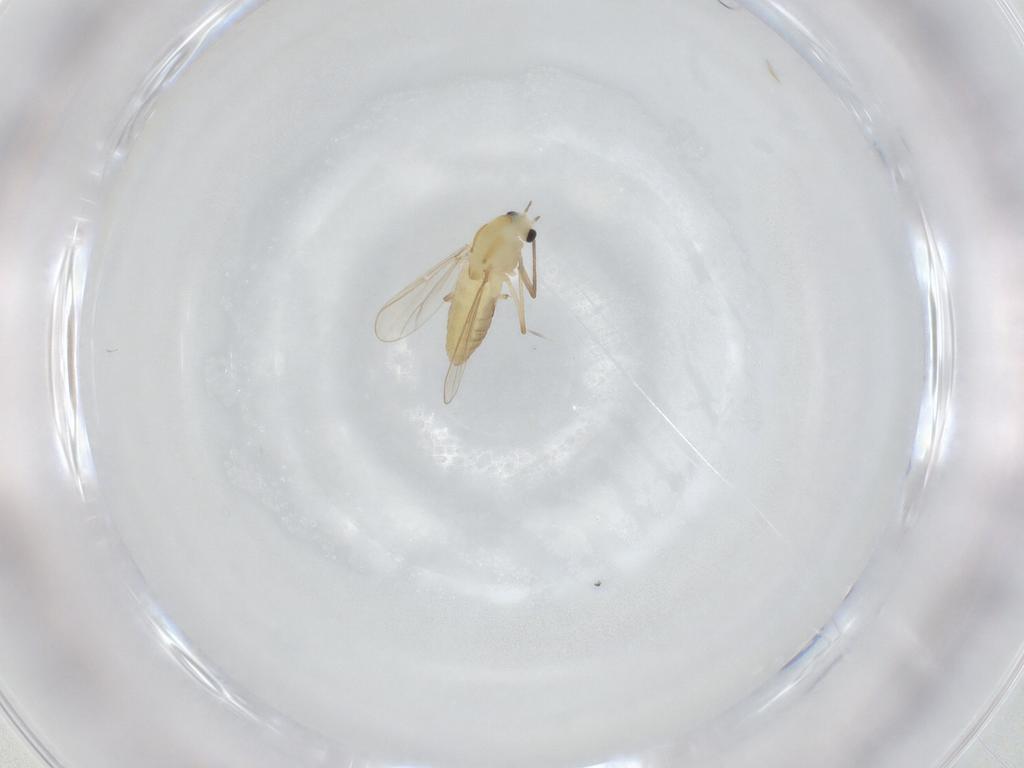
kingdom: Animalia
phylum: Arthropoda
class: Insecta
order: Diptera
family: Chironomidae
